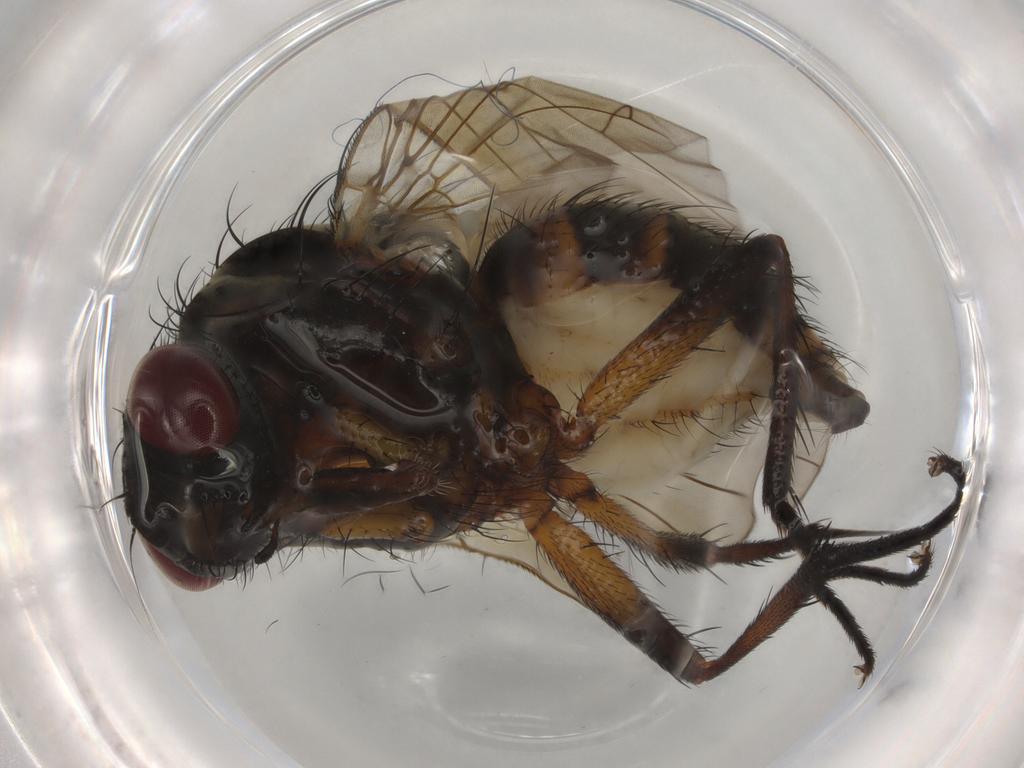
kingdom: Animalia
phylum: Arthropoda
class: Insecta
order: Diptera
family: Anthomyiidae
